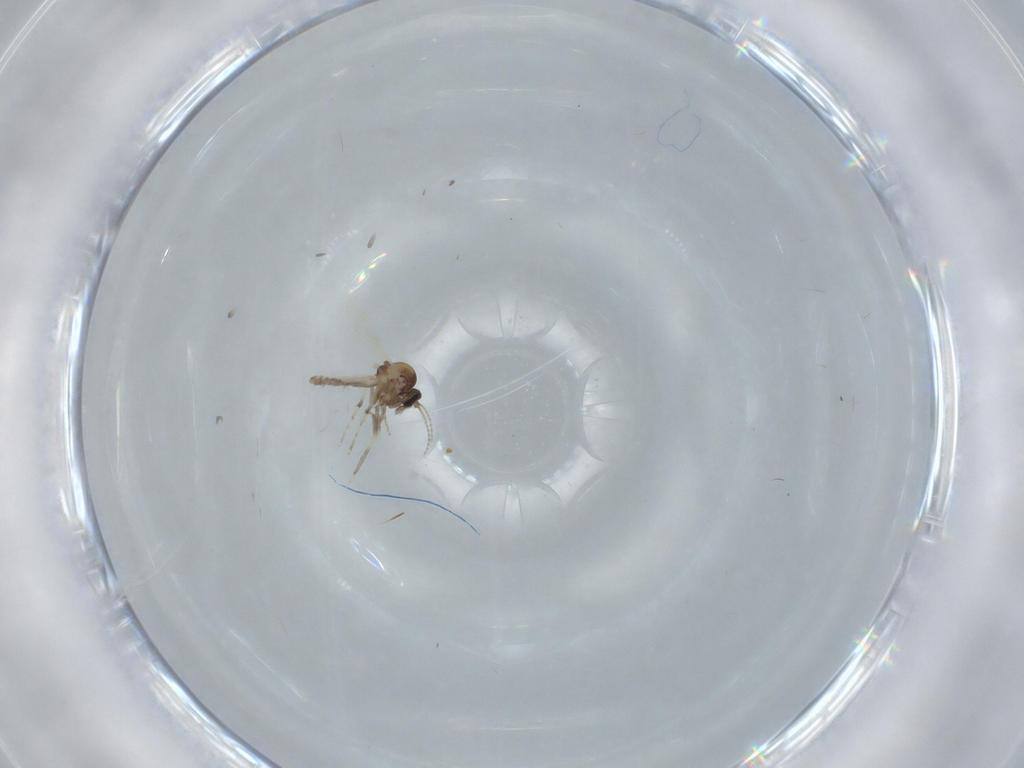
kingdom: Animalia
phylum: Arthropoda
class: Insecta
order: Diptera
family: Ceratopogonidae
